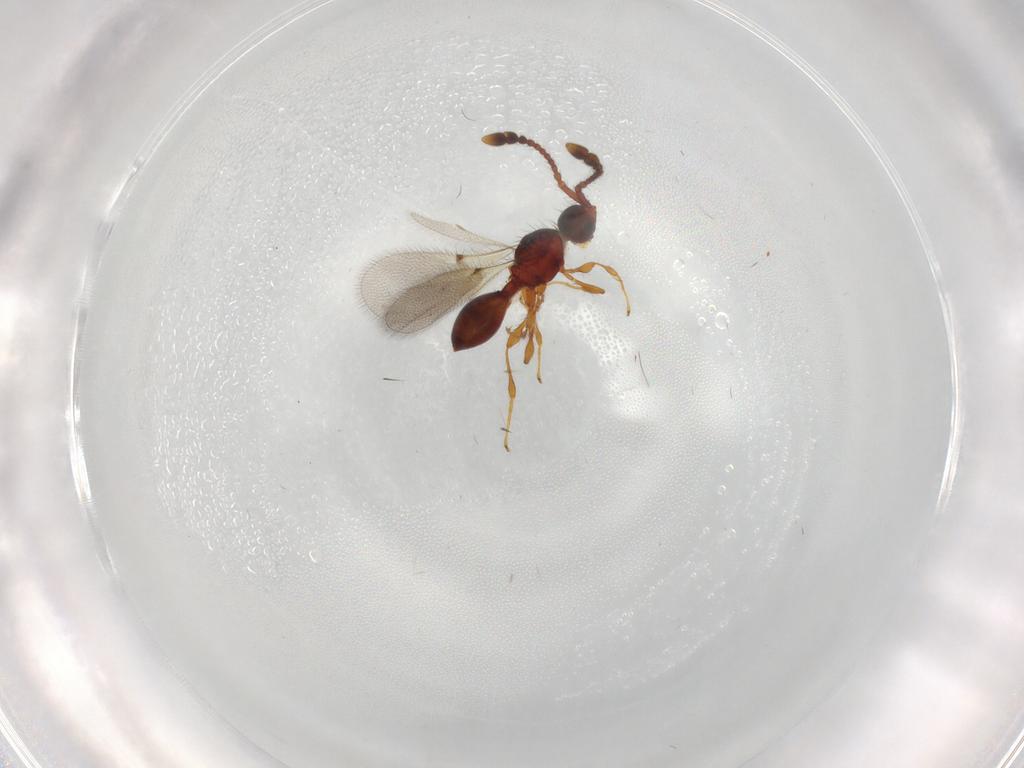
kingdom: Animalia
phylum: Arthropoda
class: Insecta
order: Hymenoptera
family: Diapriidae
